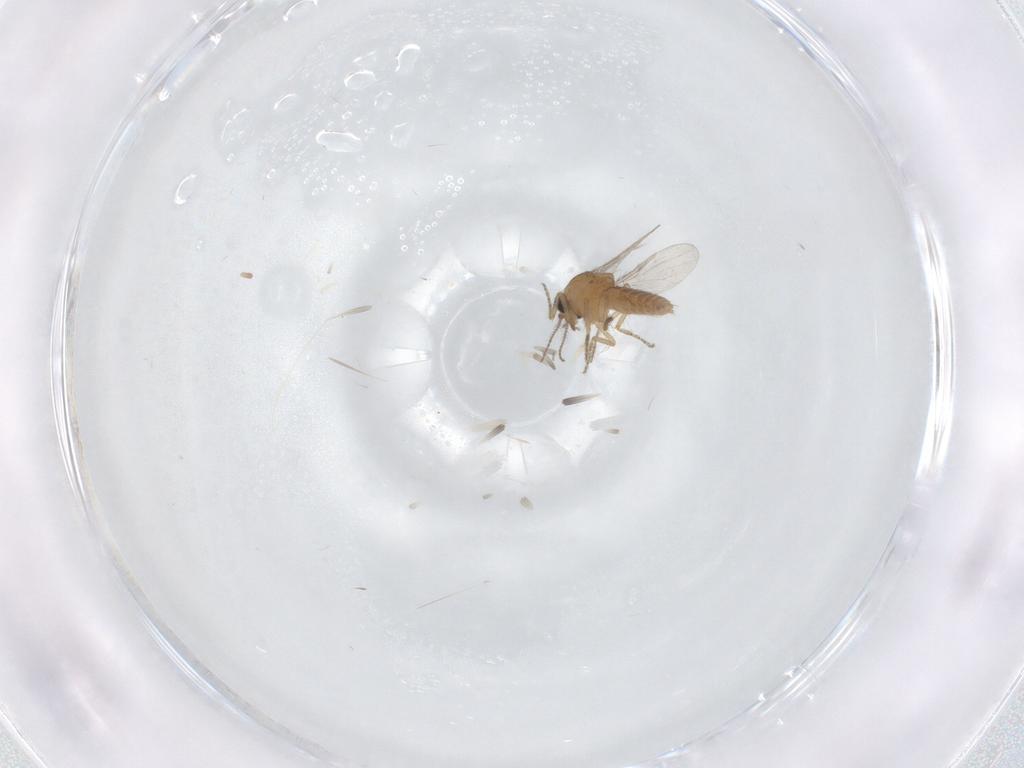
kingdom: Animalia
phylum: Arthropoda
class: Insecta
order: Diptera
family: Ceratopogonidae
